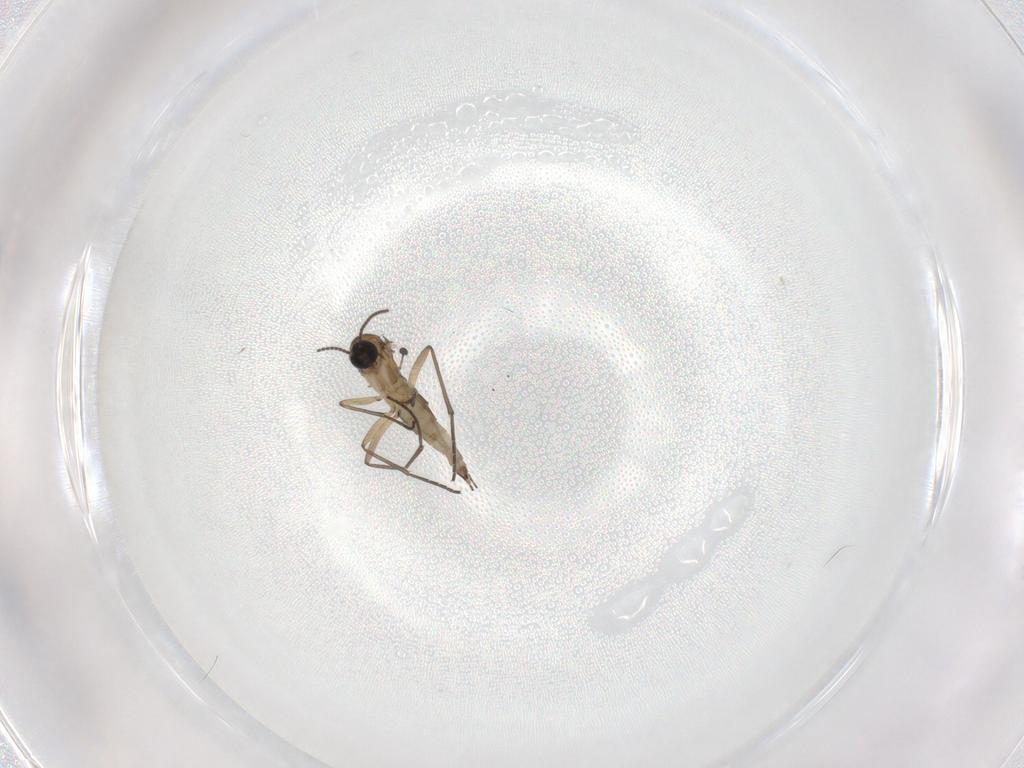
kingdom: Animalia
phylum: Arthropoda
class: Insecta
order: Diptera
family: Sciaridae
